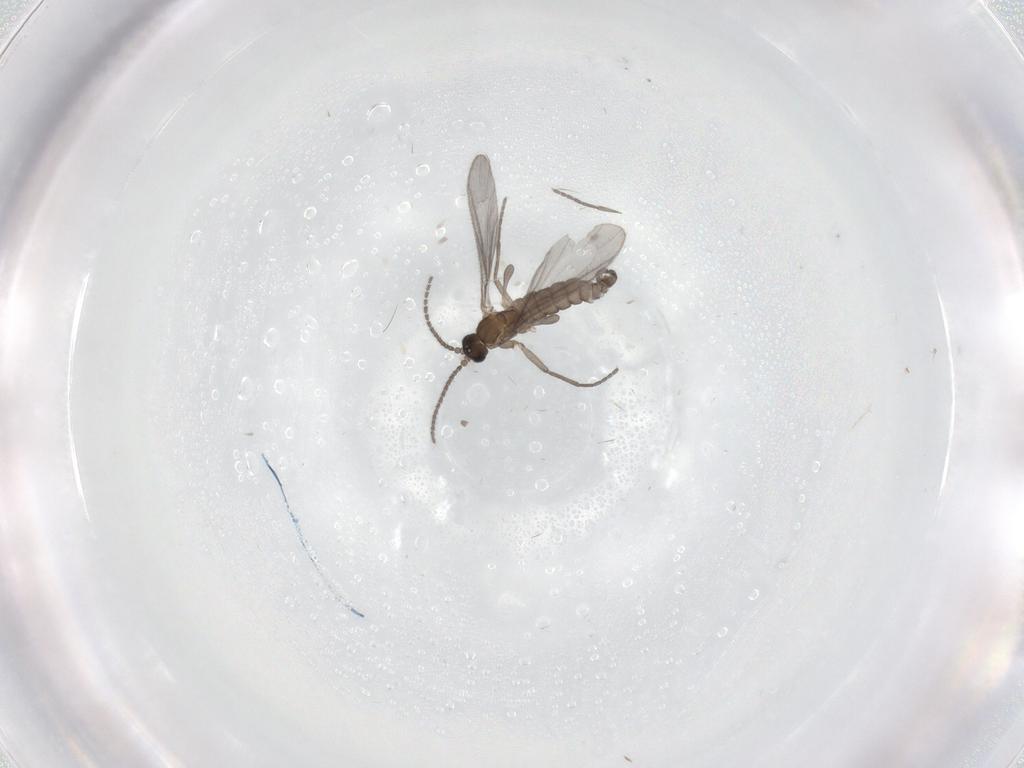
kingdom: Animalia
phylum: Arthropoda
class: Insecta
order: Diptera
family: Sciaridae
